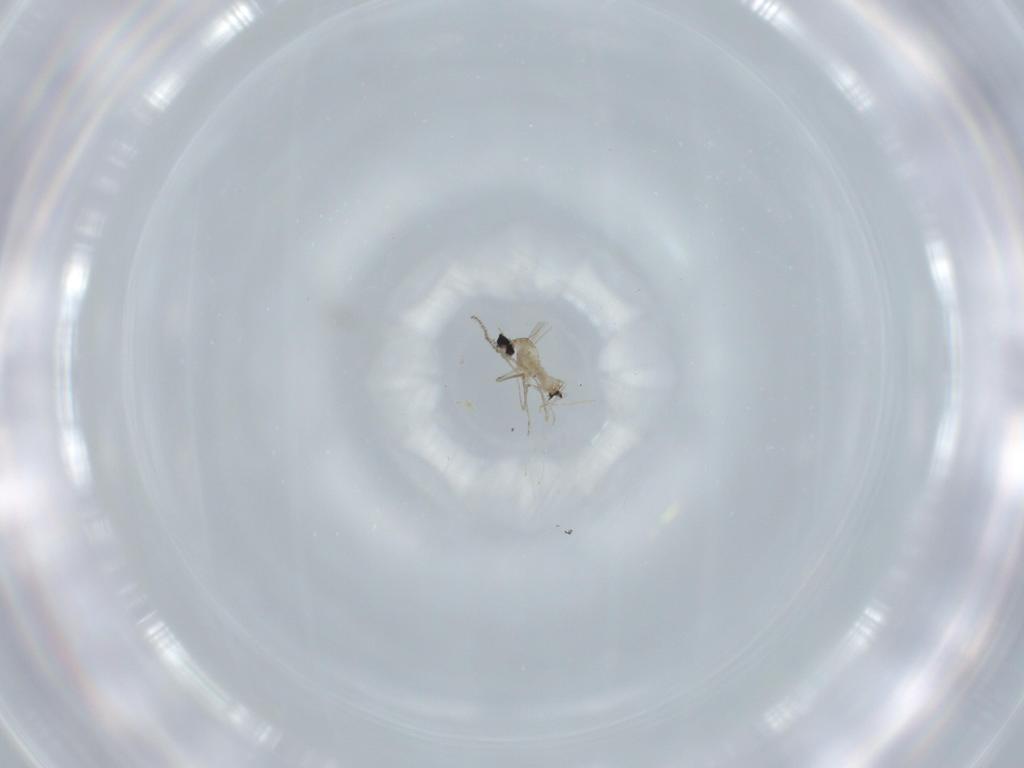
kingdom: Animalia
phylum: Arthropoda
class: Insecta
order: Diptera
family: Cecidomyiidae
